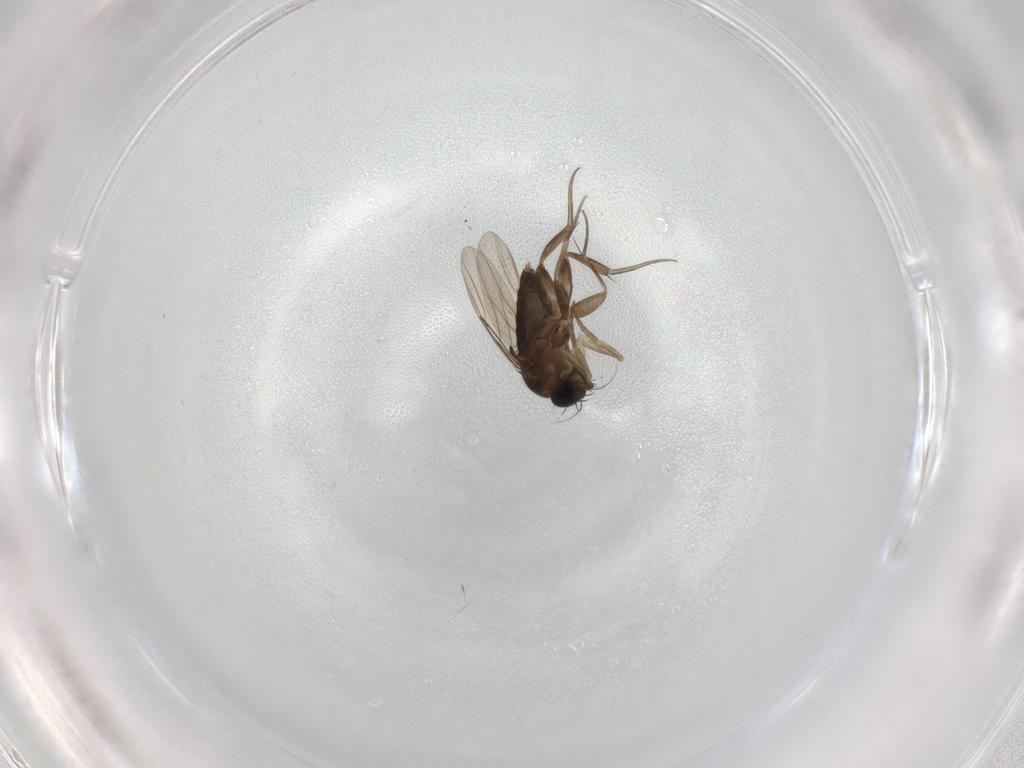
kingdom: Animalia
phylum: Arthropoda
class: Insecta
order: Diptera
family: Phoridae
